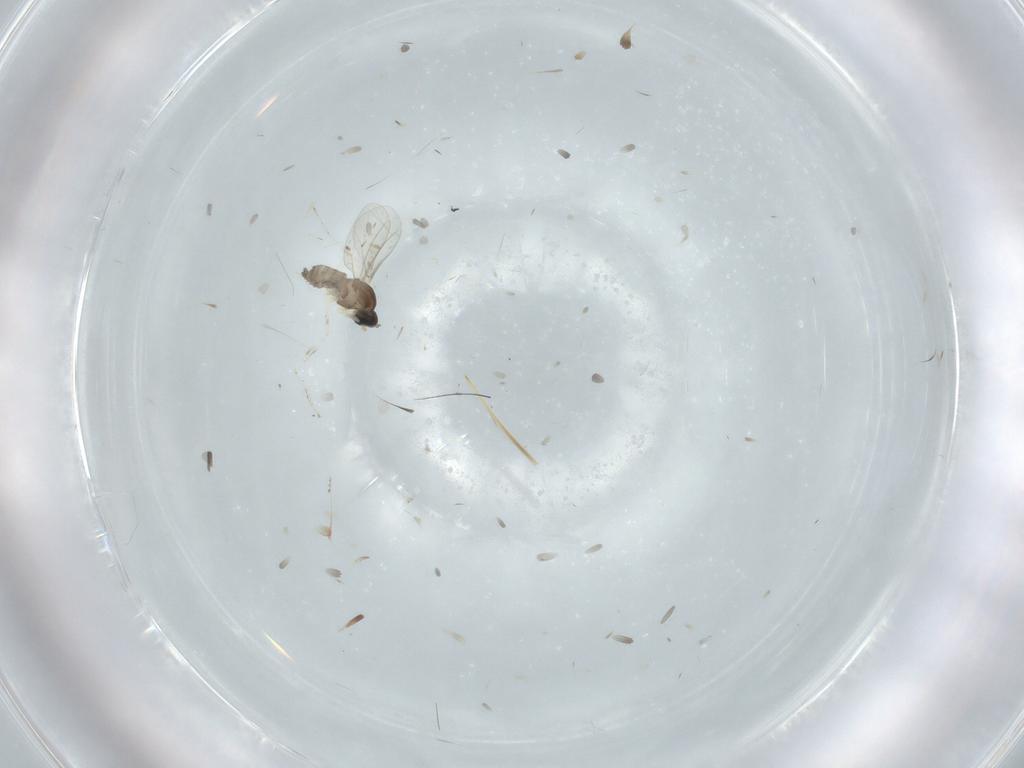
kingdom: Animalia
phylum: Arthropoda
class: Insecta
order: Diptera
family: Cecidomyiidae
